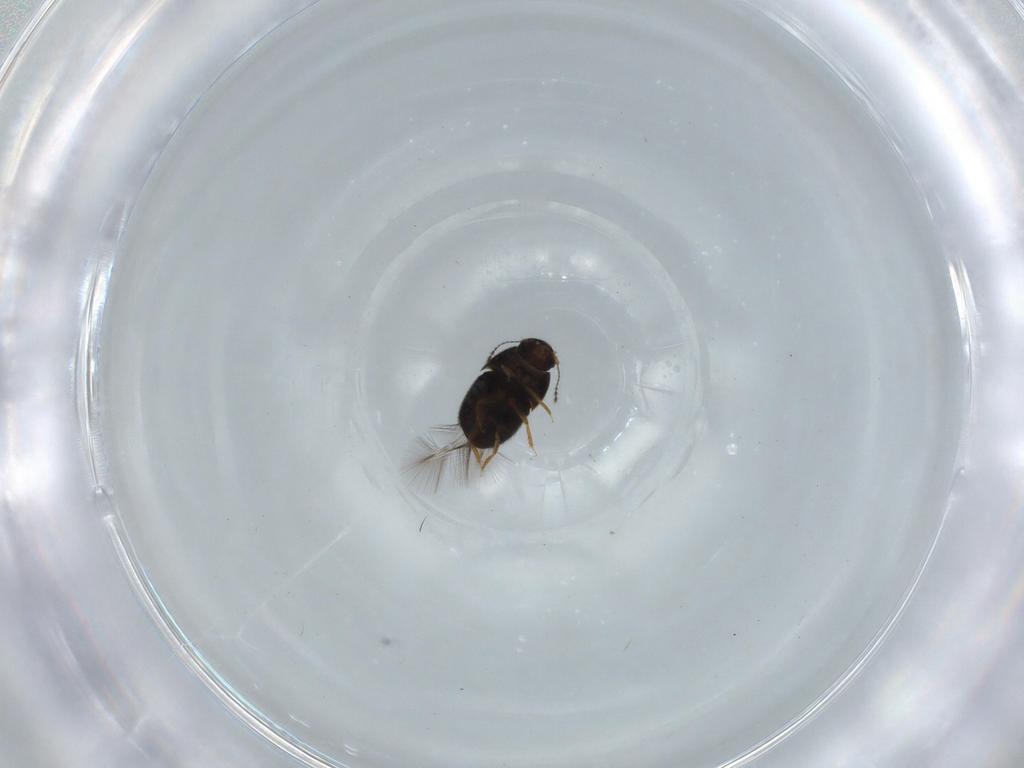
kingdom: Animalia
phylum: Arthropoda
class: Insecta
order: Coleoptera
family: Ptiliidae
